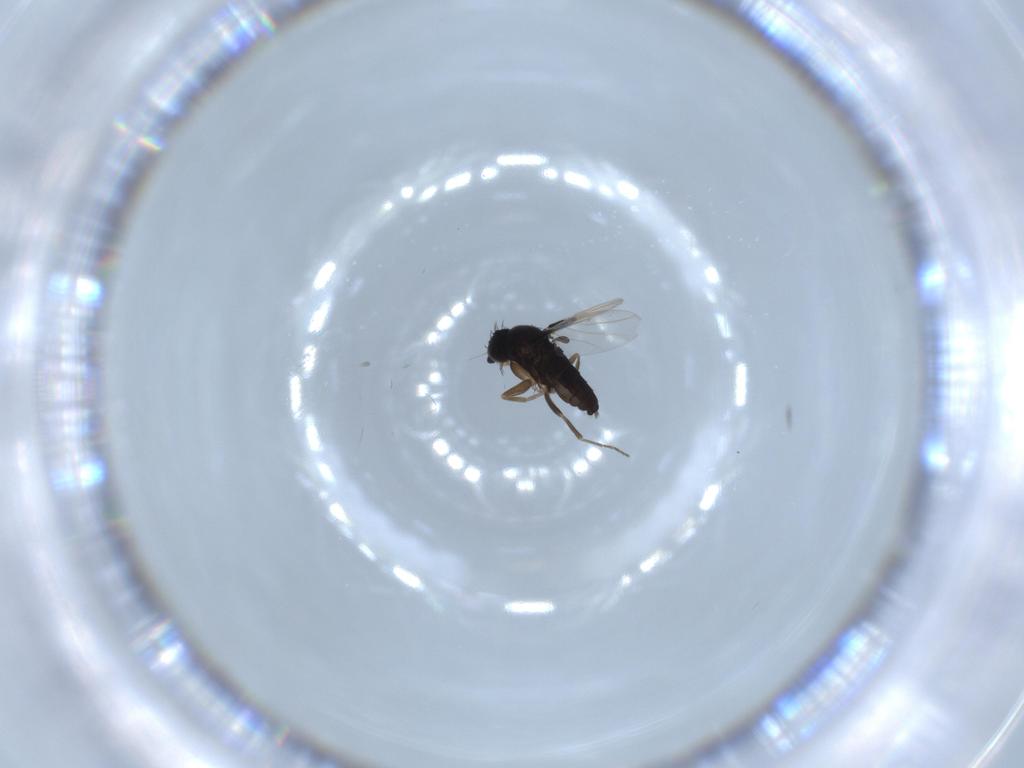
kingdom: Animalia
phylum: Arthropoda
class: Insecta
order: Diptera
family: Phoridae
